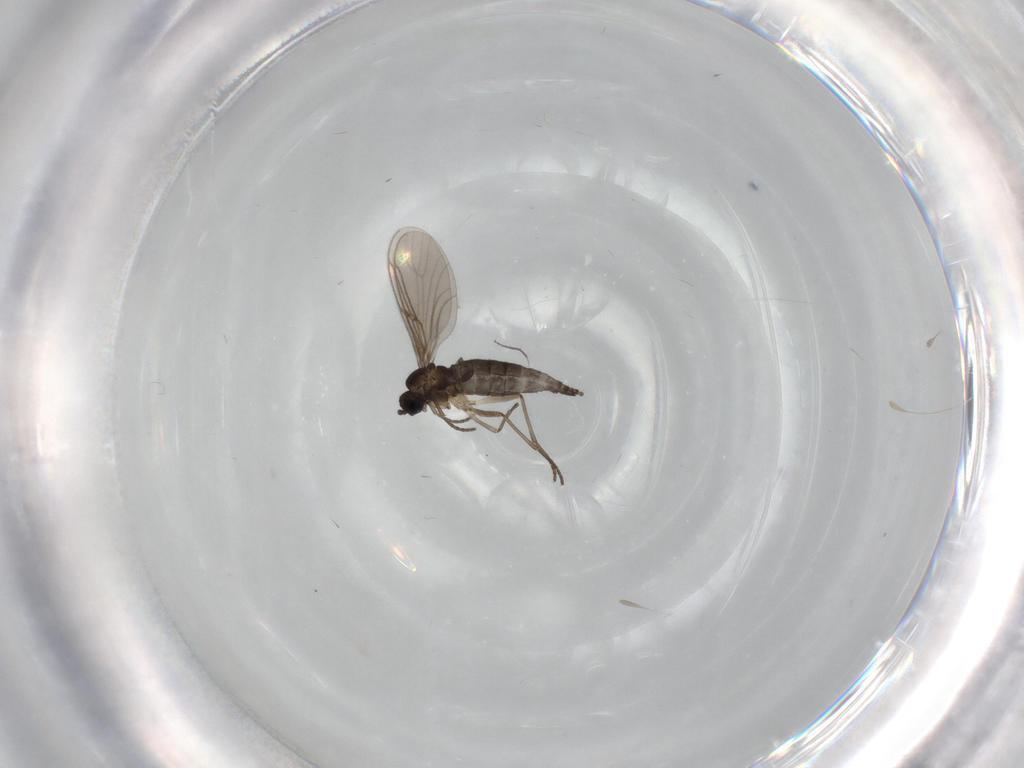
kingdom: Animalia
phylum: Arthropoda
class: Insecta
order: Diptera
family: Sciaridae
